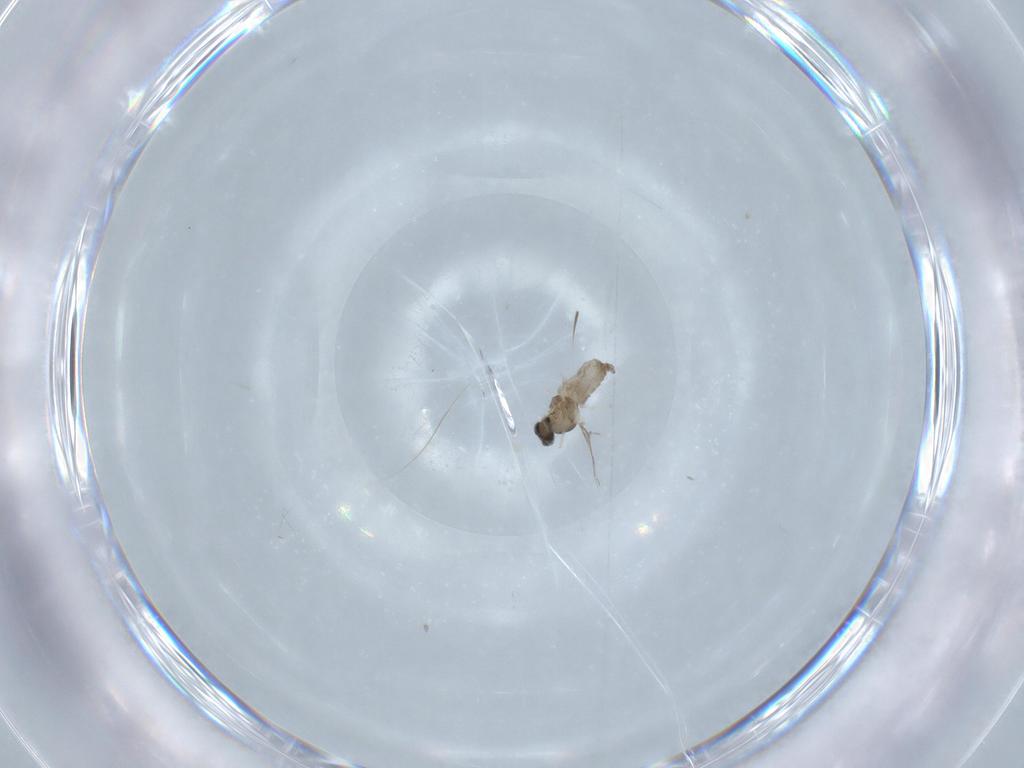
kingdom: Animalia
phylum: Arthropoda
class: Insecta
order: Diptera
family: Cecidomyiidae
